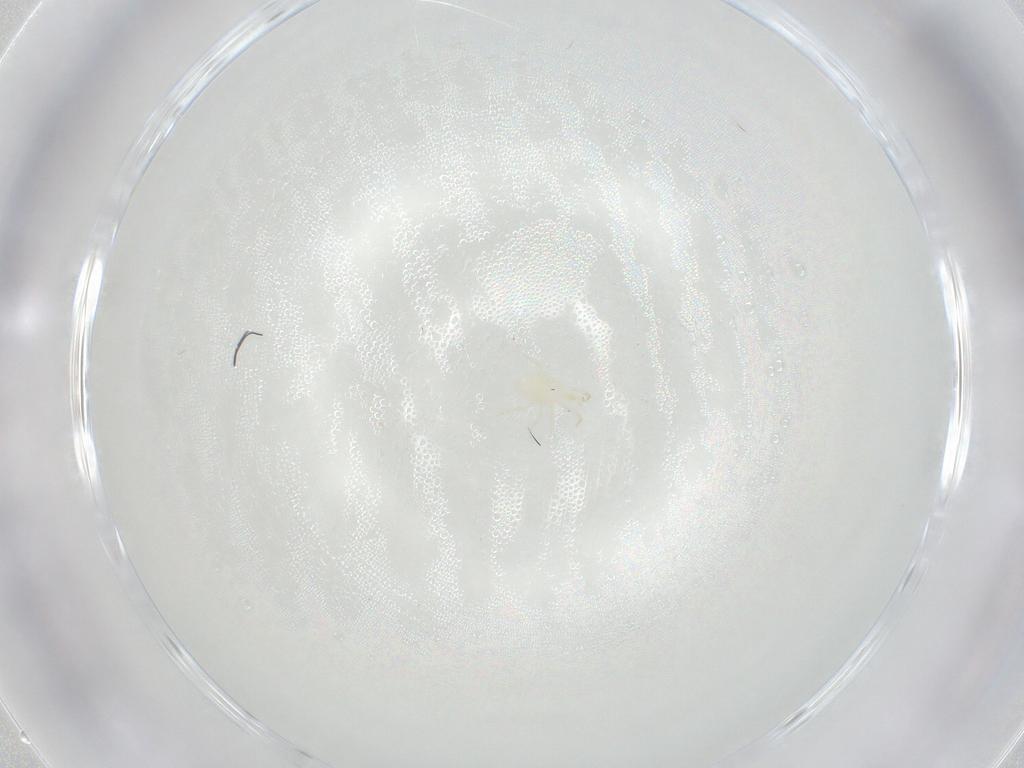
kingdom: Animalia
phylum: Arthropoda
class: Arachnida
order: Mesostigmata
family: Phytoseiidae
